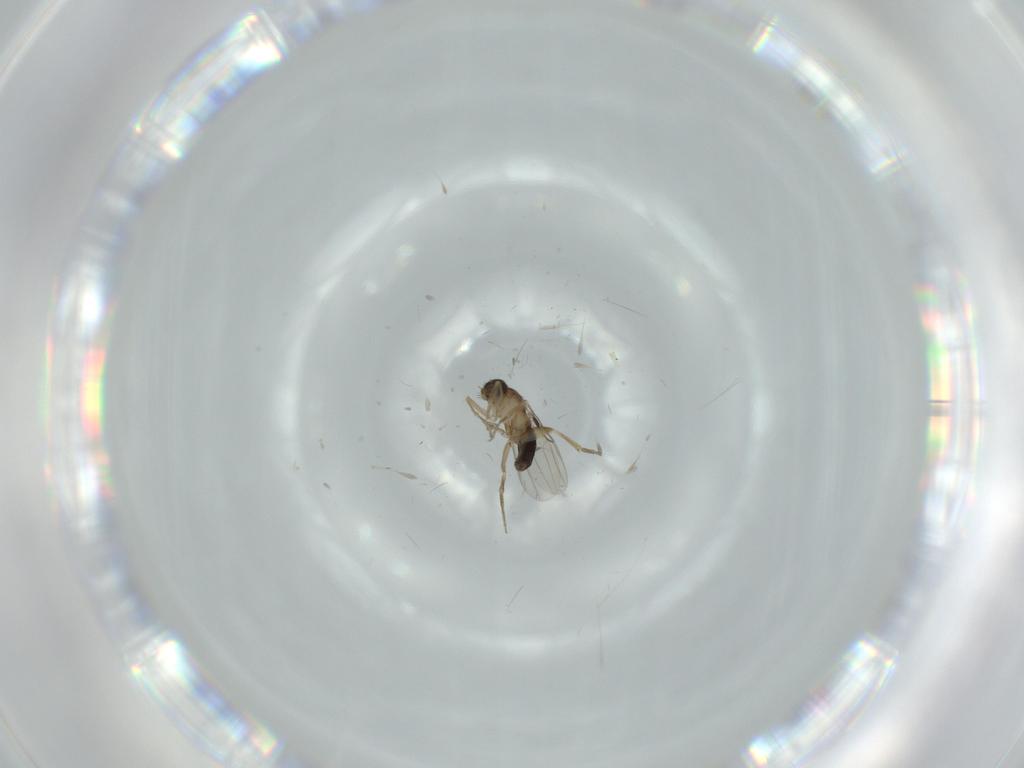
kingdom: Animalia
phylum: Arthropoda
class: Insecta
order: Diptera
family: Phoridae
